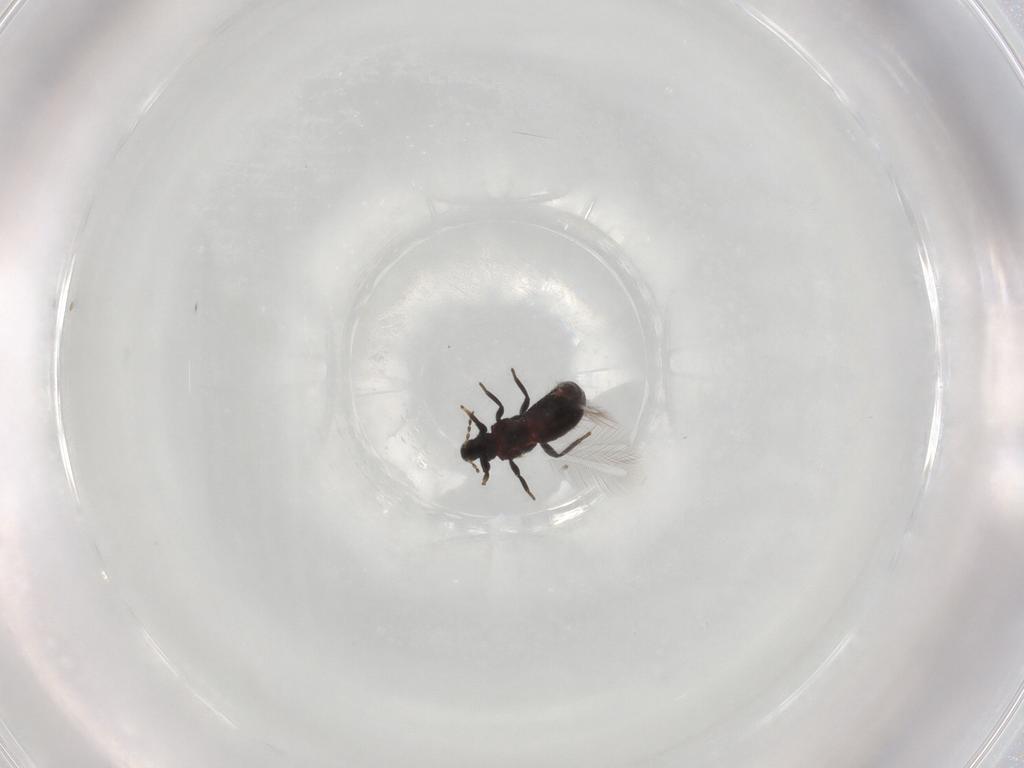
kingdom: Animalia
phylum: Arthropoda
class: Insecta
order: Thysanoptera
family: Phlaeothripidae
